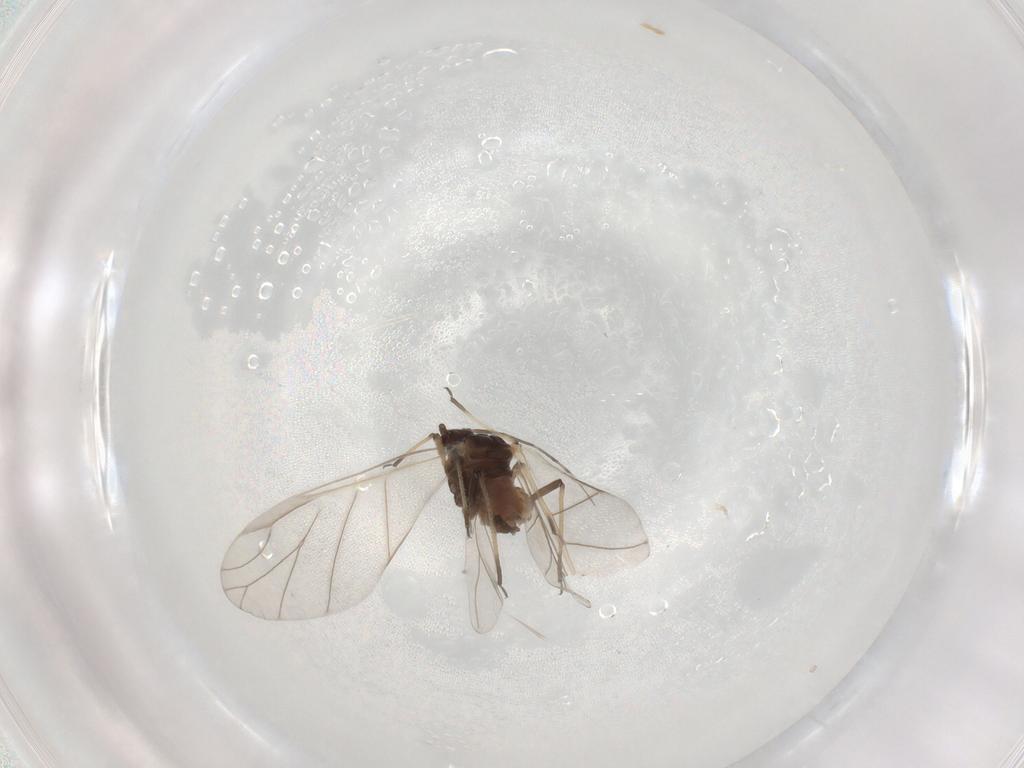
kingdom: Animalia
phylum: Arthropoda
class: Insecta
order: Hemiptera
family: Aphididae
